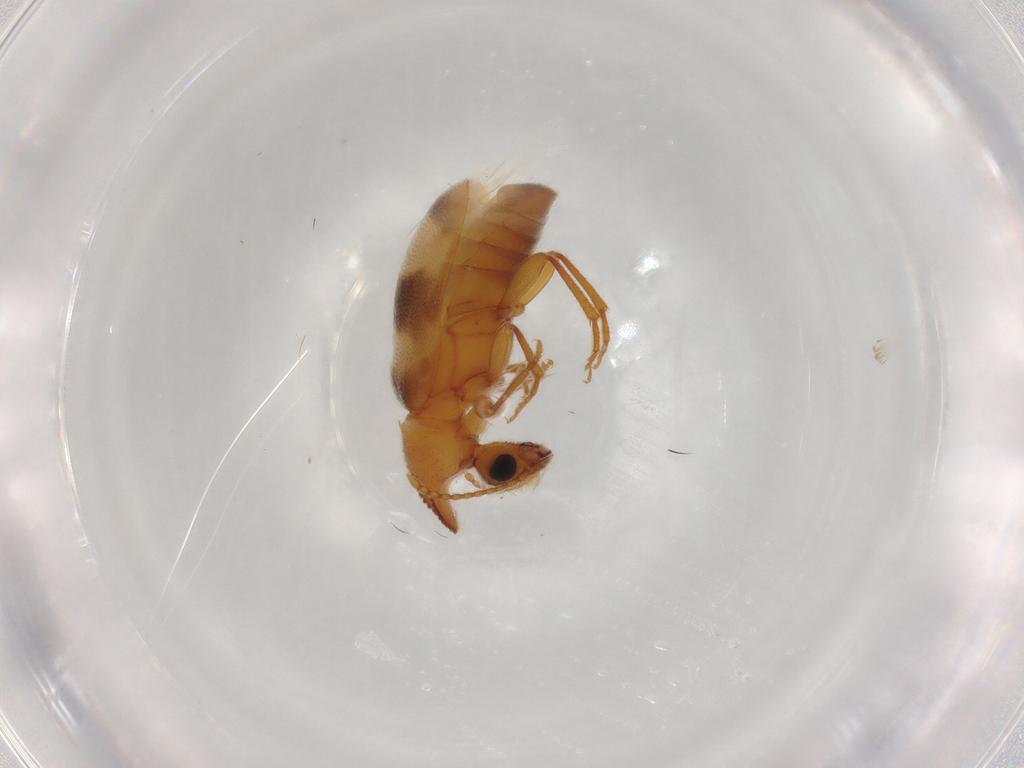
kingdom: Animalia
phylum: Arthropoda
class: Insecta
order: Coleoptera
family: Anthicidae
